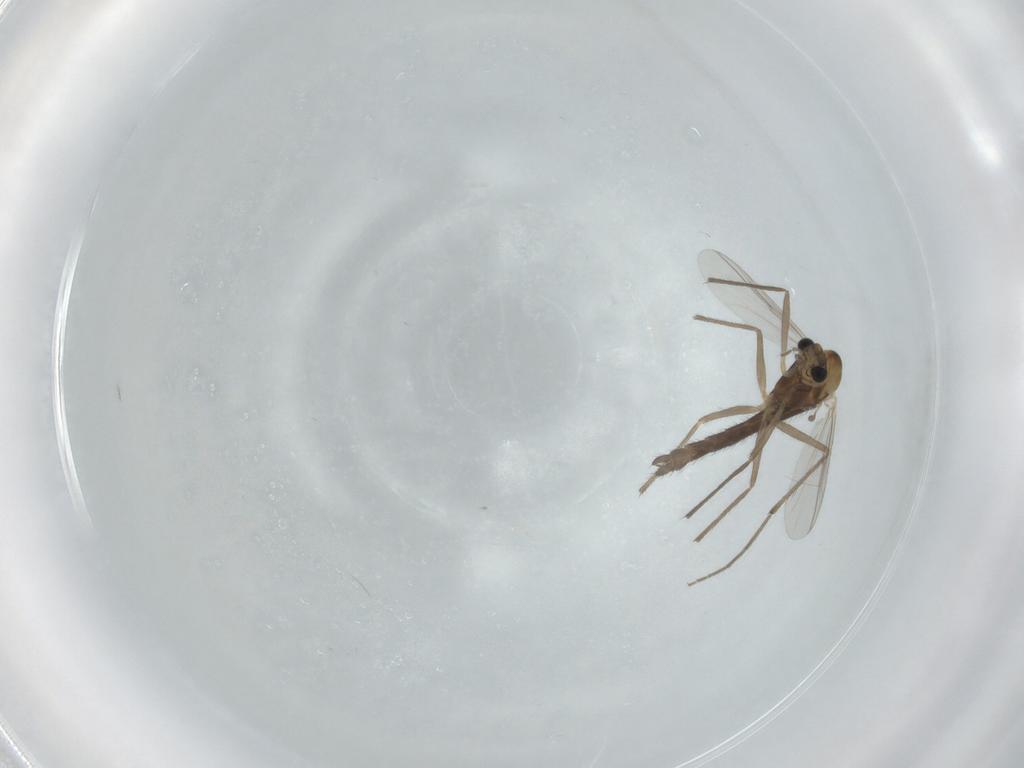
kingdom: Animalia
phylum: Arthropoda
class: Insecta
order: Diptera
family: Chironomidae
